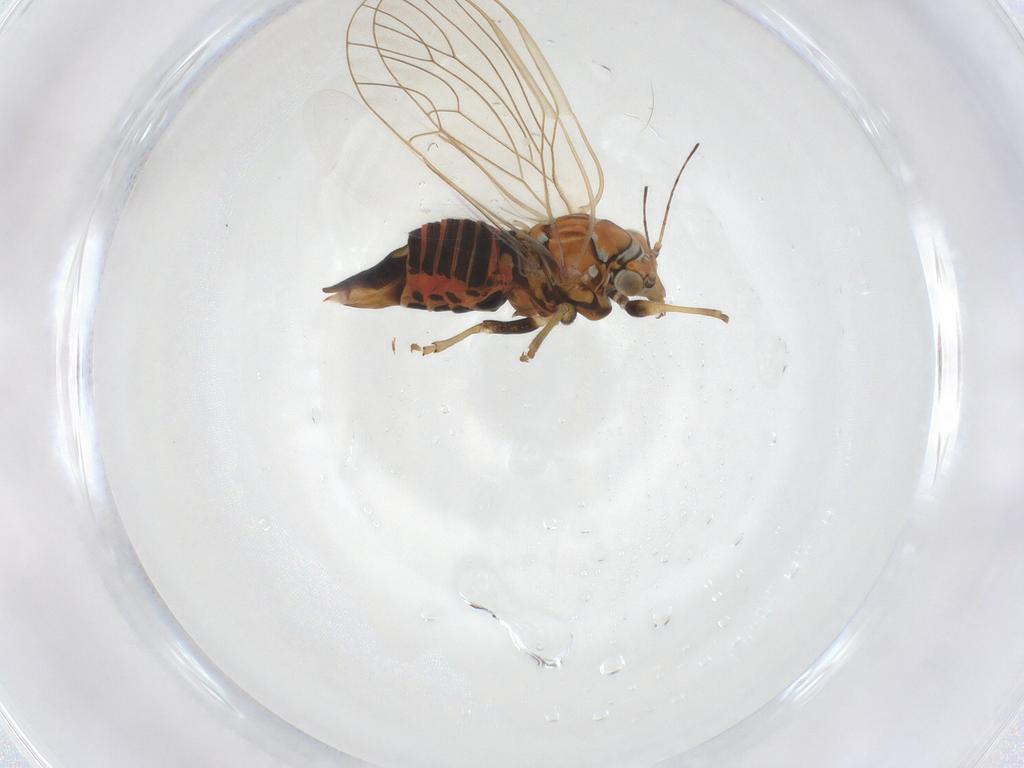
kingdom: Animalia
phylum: Arthropoda
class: Insecta
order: Hemiptera
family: Psyllidae
